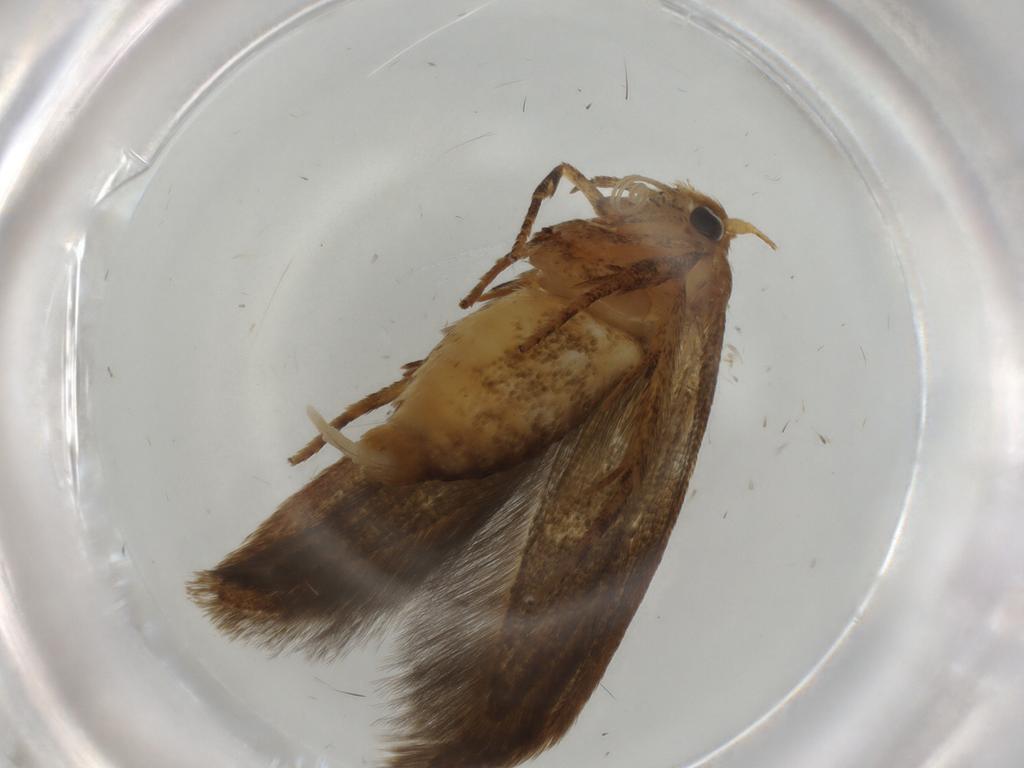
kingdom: Animalia
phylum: Arthropoda
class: Insecta
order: Lepidoptera
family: Blastobasidae
